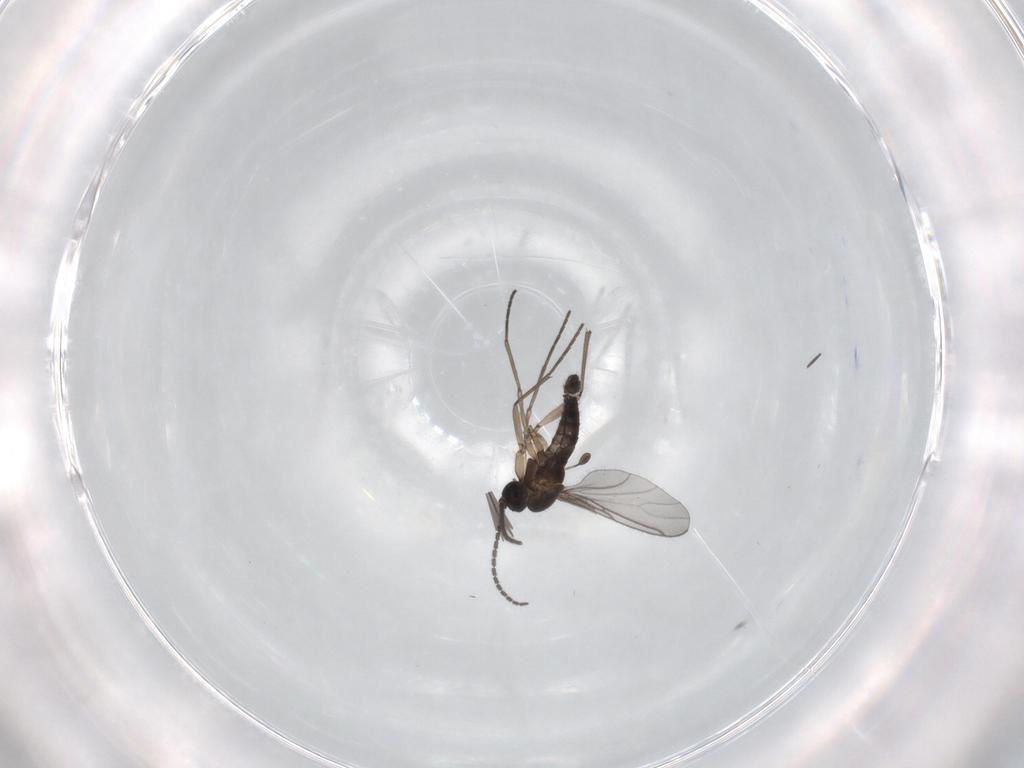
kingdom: Animalia
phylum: Arthropoda
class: Insecta
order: Diptera
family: Sciaridae
